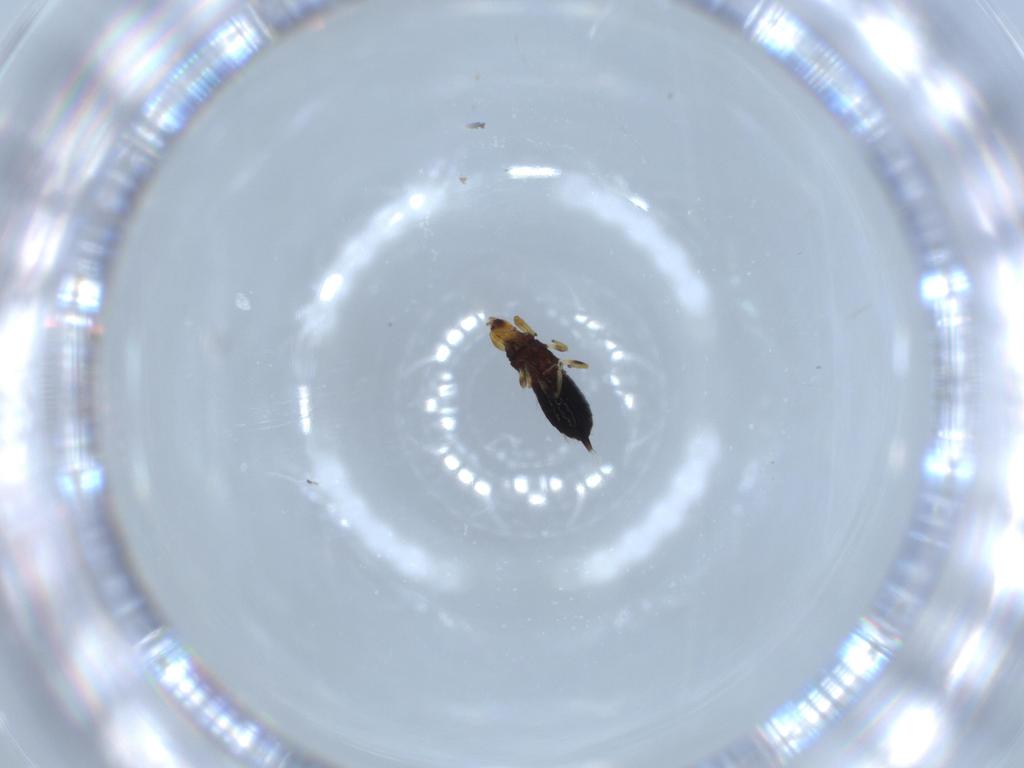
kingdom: Animalia
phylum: Arthropoda
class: Insecta
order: Thysanoptera
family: Phlaeothripidae
